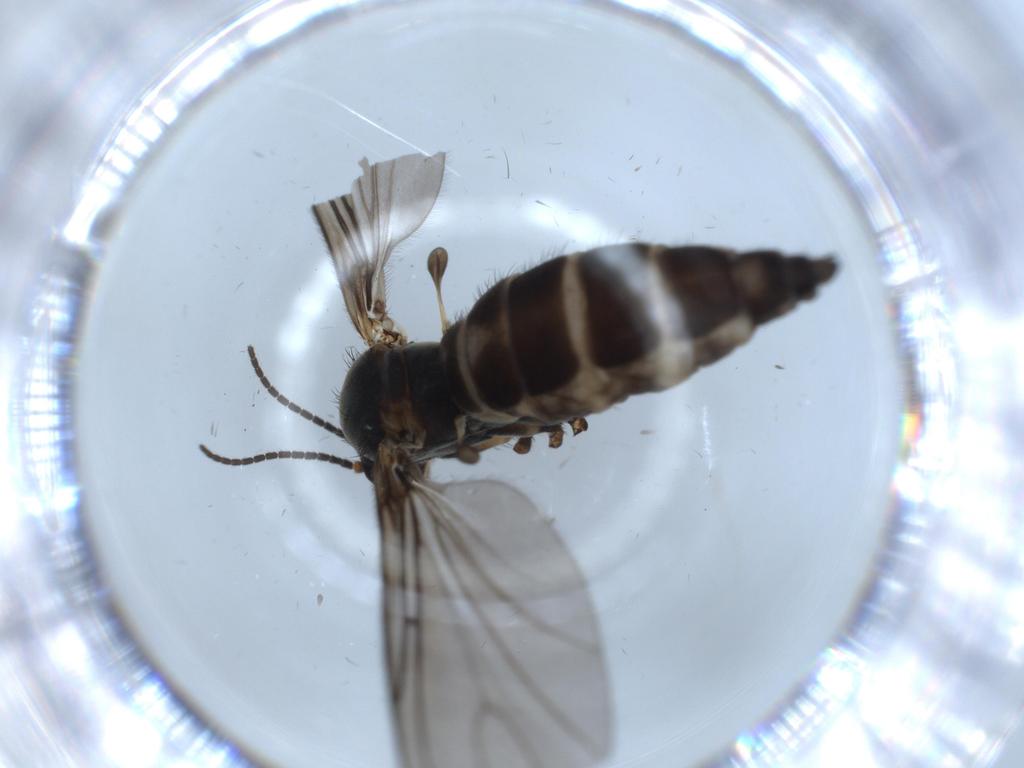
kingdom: Animalia
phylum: Arthropoda
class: Insecta
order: Diptera
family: Sciaridae
